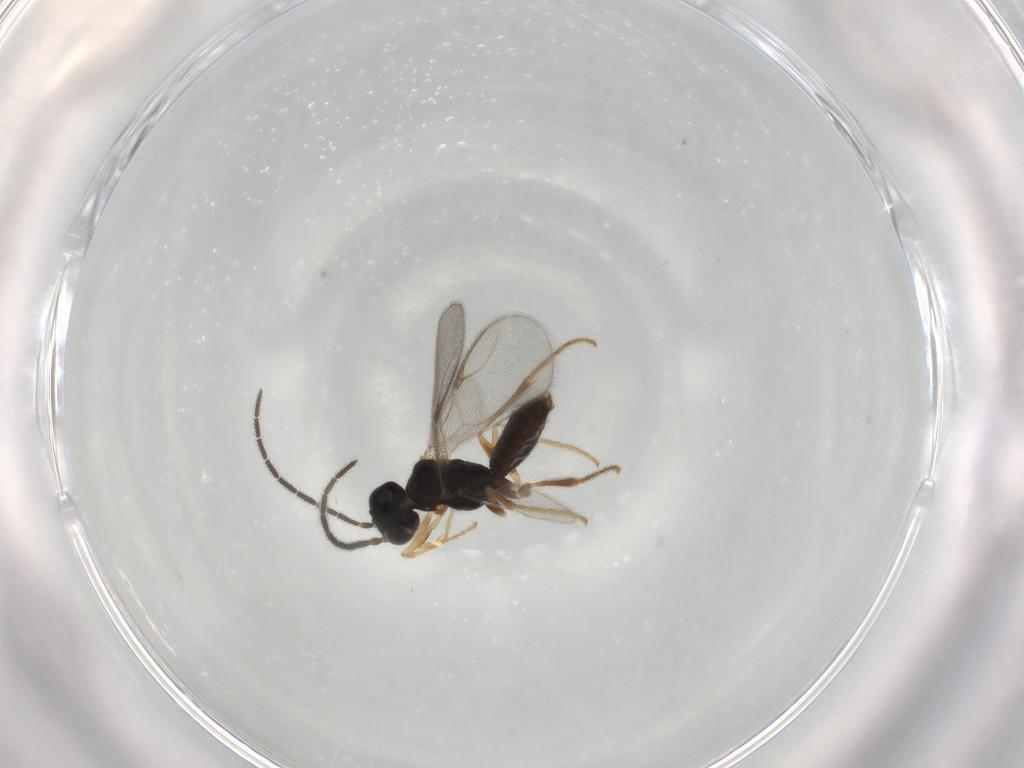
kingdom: Animalia
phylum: Arthropoda
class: Insecta
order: Hymenoptera
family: Dryinidae
